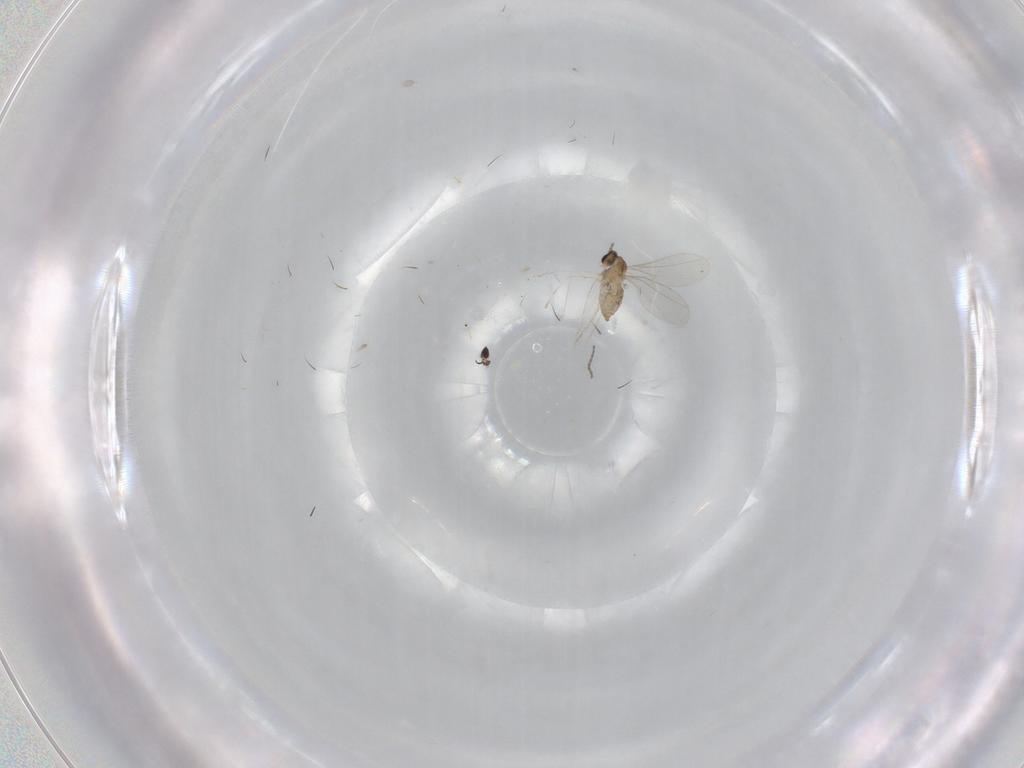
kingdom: Animalia
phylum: Arthropoda
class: Insecta
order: Diptera
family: Cecidomyiidae
